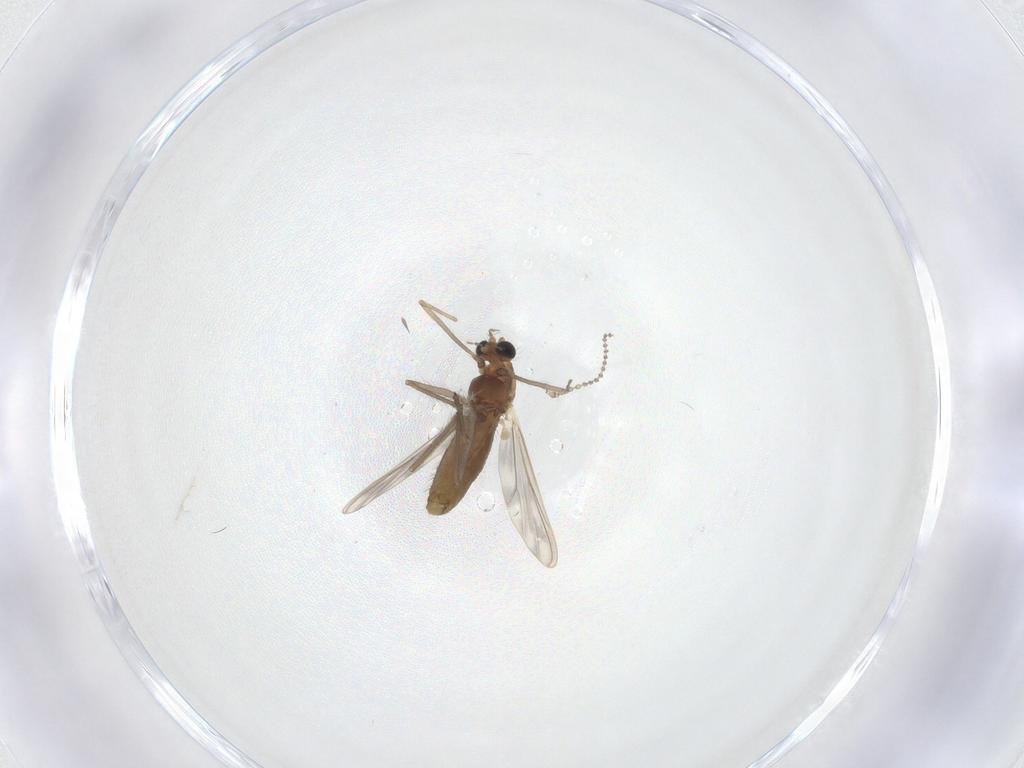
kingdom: Animalia
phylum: Arthropoda
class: Insecta
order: Diptera
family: Chironomidae
